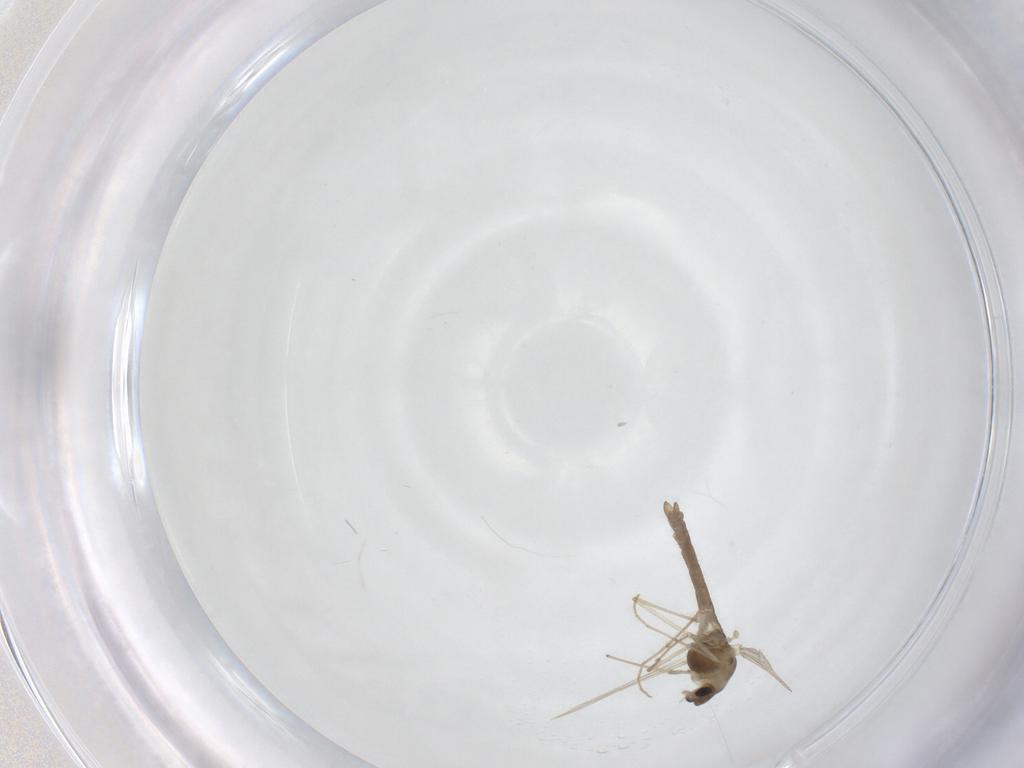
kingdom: Animalia
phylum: Arthropoda
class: Insecta
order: Diptera
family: Chironomidae
